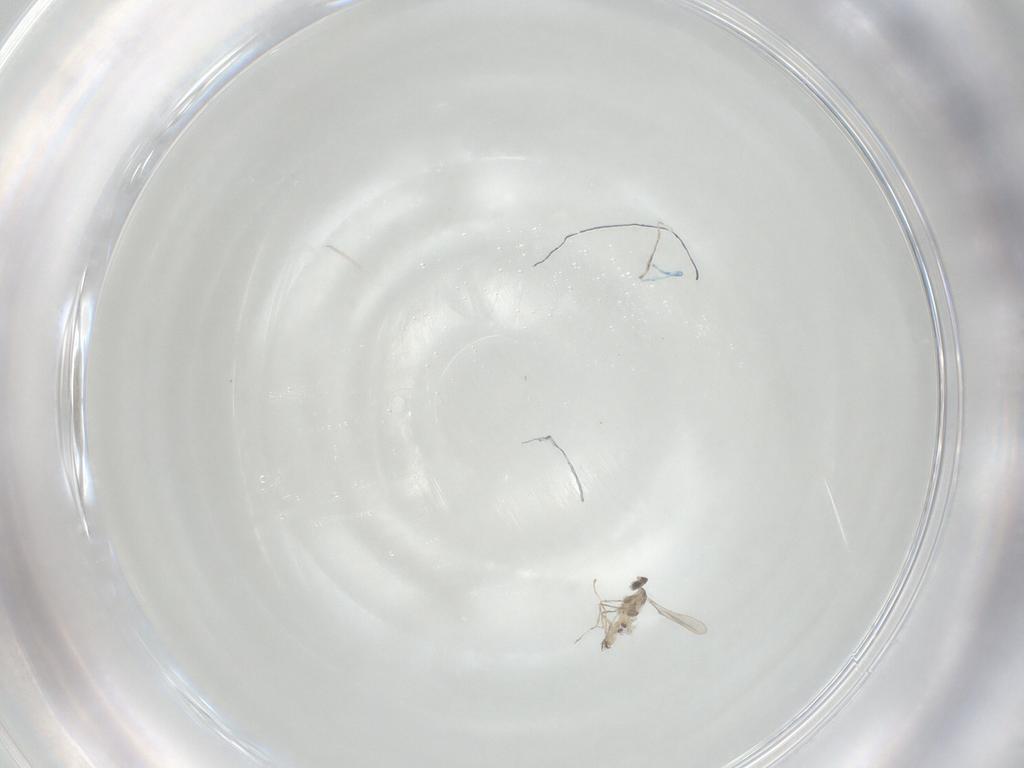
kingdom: Animalia
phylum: Arthropoda
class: Insecta
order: Diptera
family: Cecidomyiidae
